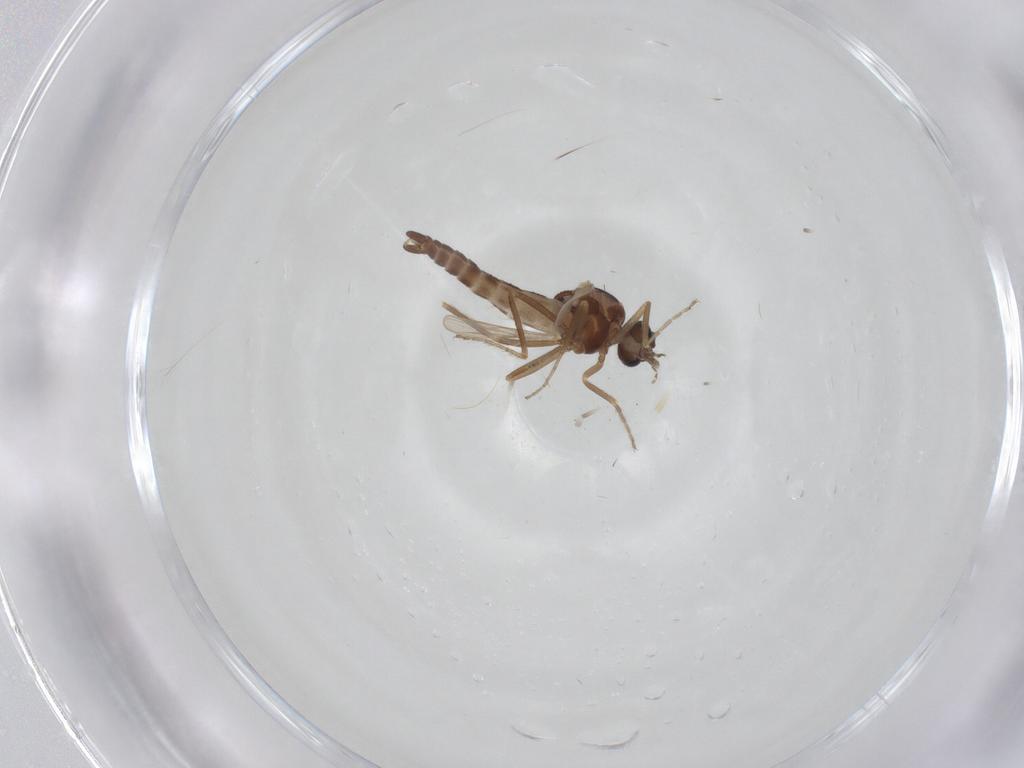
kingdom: Animalia
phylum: Arthropoda
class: Insecta
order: Diptera
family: Ceratopogonidae
